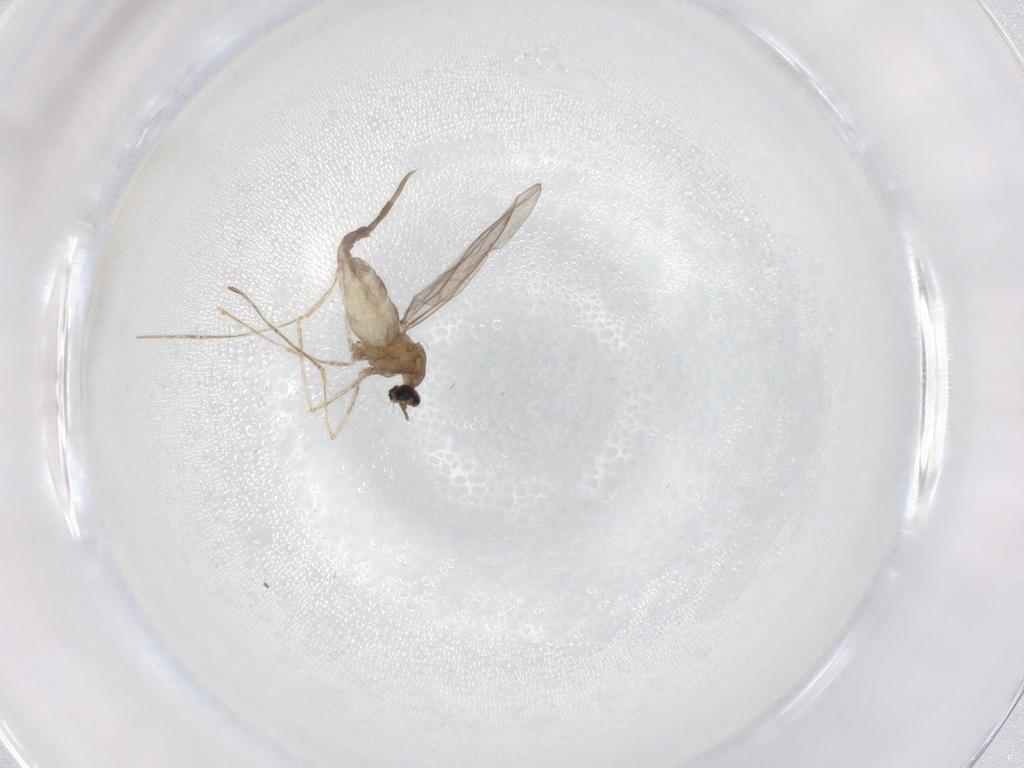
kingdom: Animalia
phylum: Arthropoda
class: Insecta
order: Diptera
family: Sciaridae
